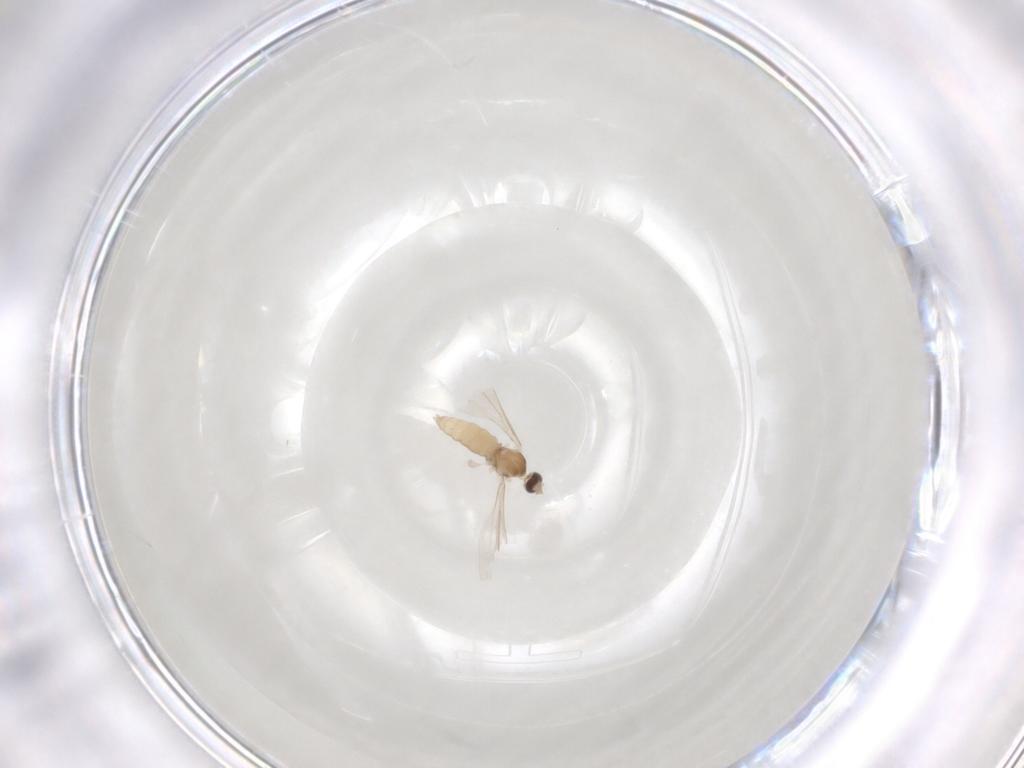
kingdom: Animalia
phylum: Arthropoda
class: Insecta
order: Diptera
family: Cecidomyiidae
